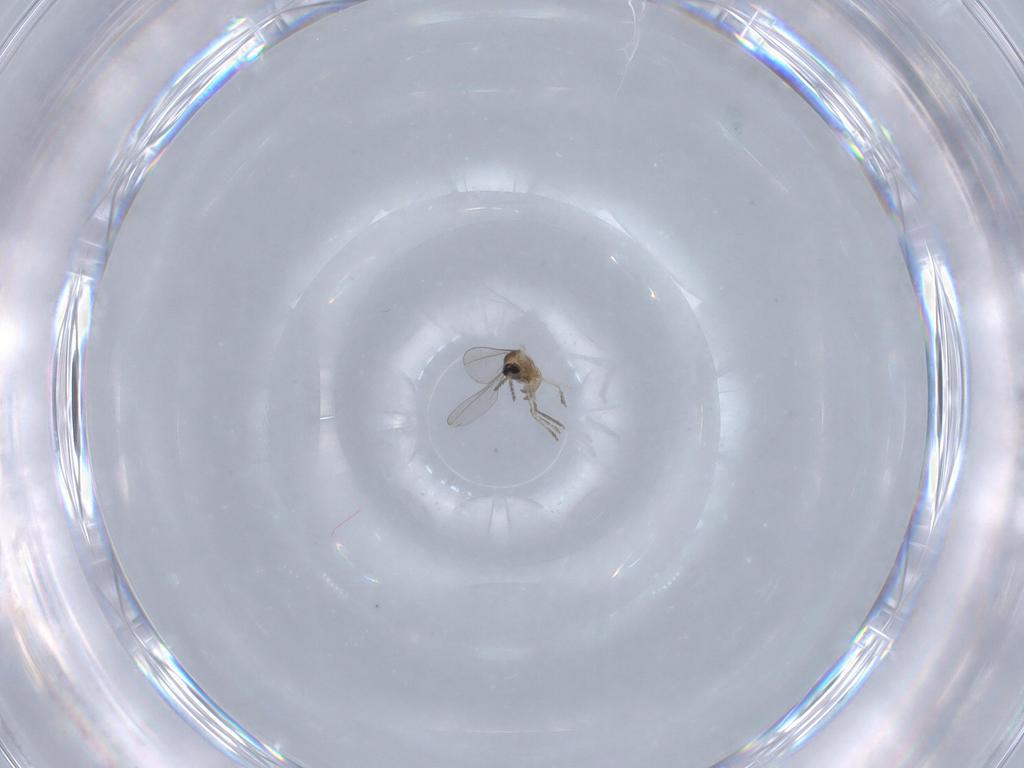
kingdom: Animalia
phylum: Arthropoda
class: Insecta
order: Diptera
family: Cecidomyiidae
